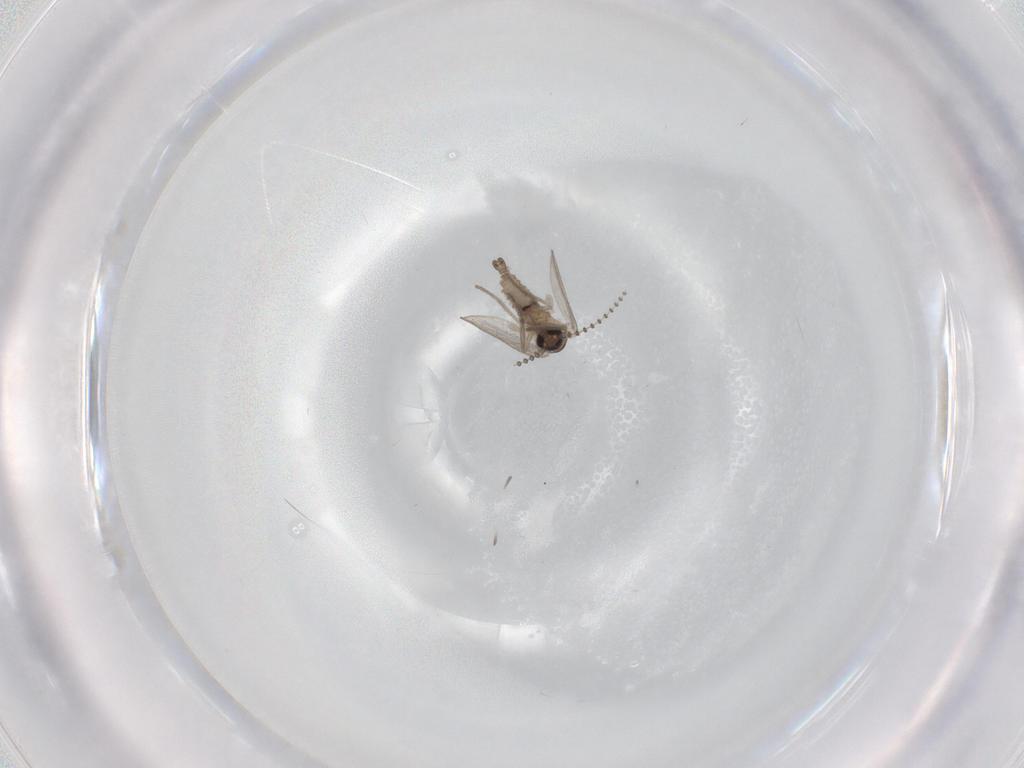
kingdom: Animalia
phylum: Arthropoda
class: Insecta
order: Diptera
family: Psychodidae
